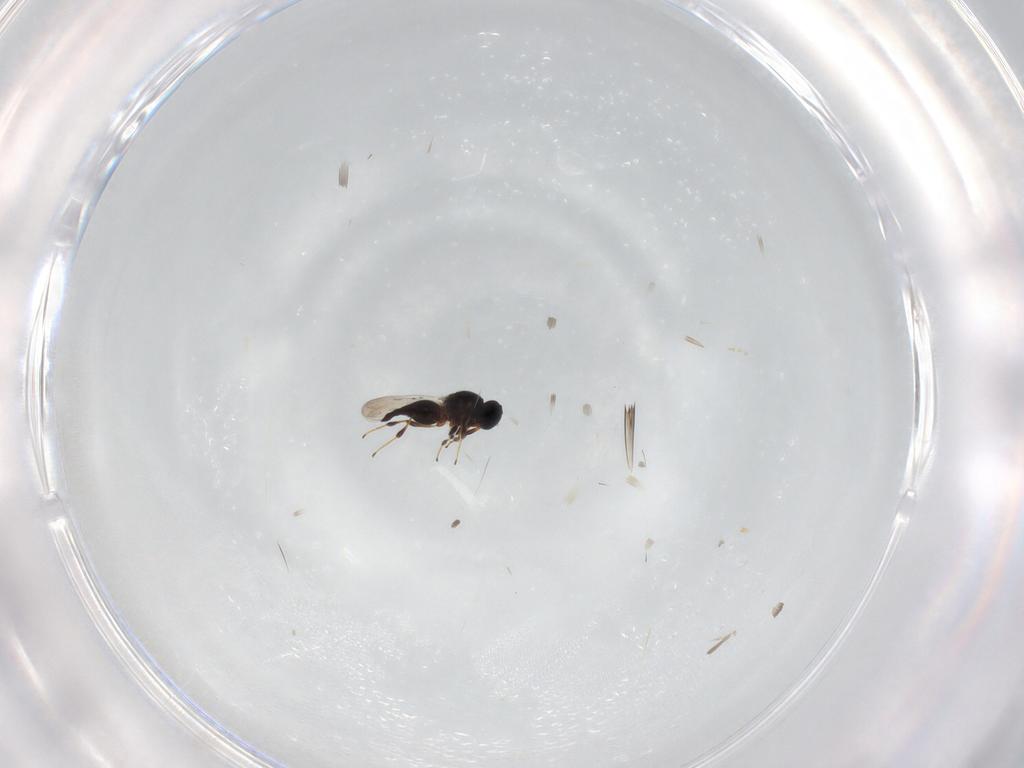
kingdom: Animalia
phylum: Arthropoda
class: Insecta
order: Hymenoptera
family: Platygastridae
